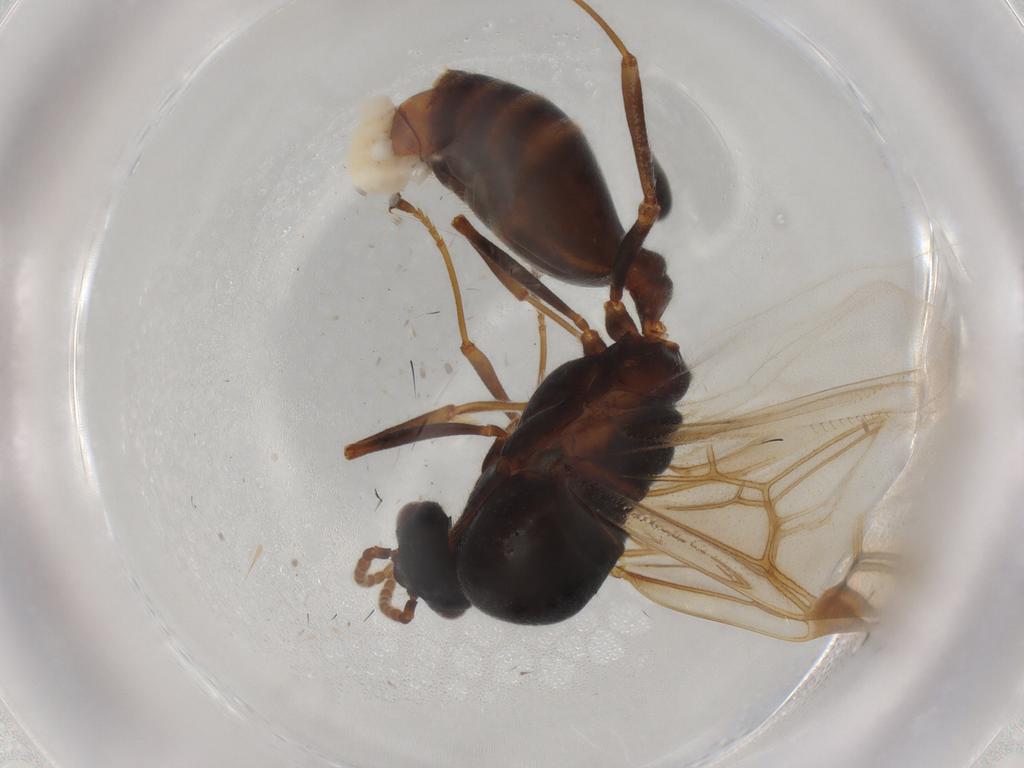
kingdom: Animalia
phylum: Arthropoda
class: Insecta
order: Hymenoptera
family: Formicidae
